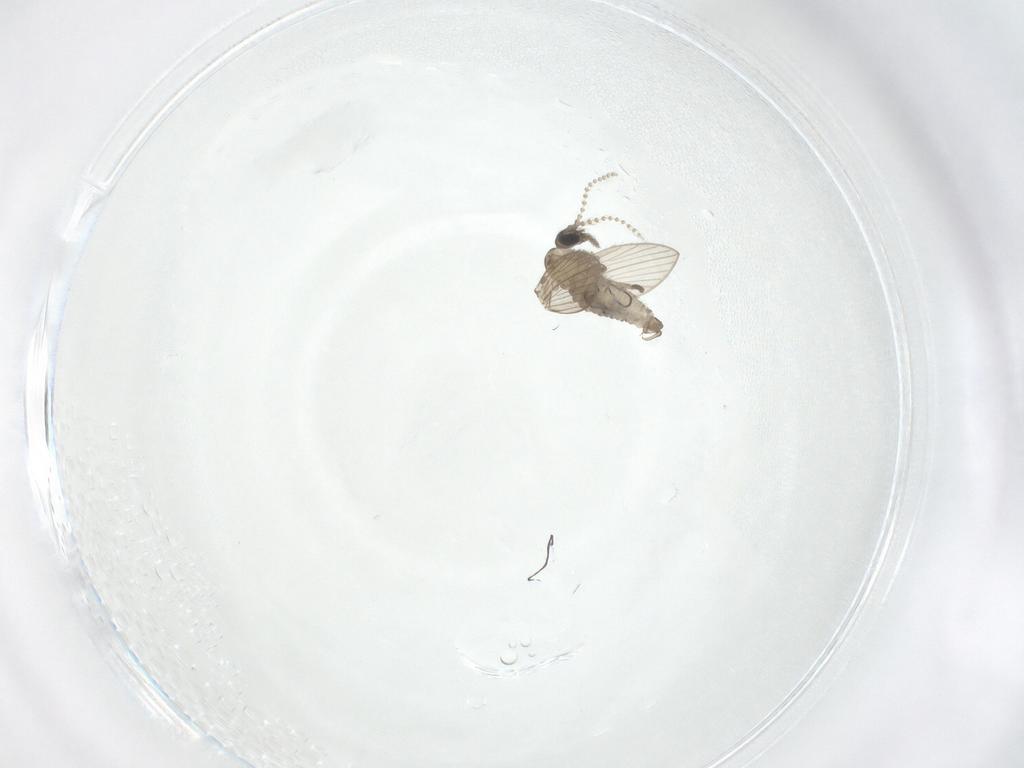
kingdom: Animalia
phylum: Arthropoda
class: Insecta
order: Diptera
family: Psychodidae
